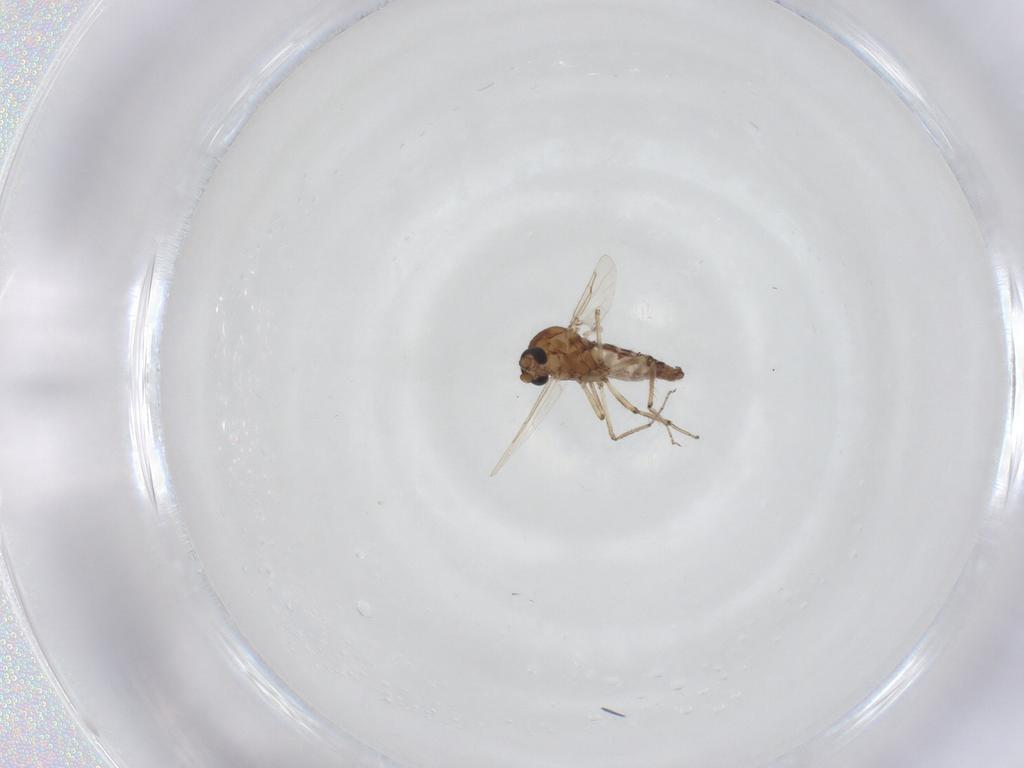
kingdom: Animalia
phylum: Arthropoda
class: Insecta
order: Diptera
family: Ceratopogonidae
